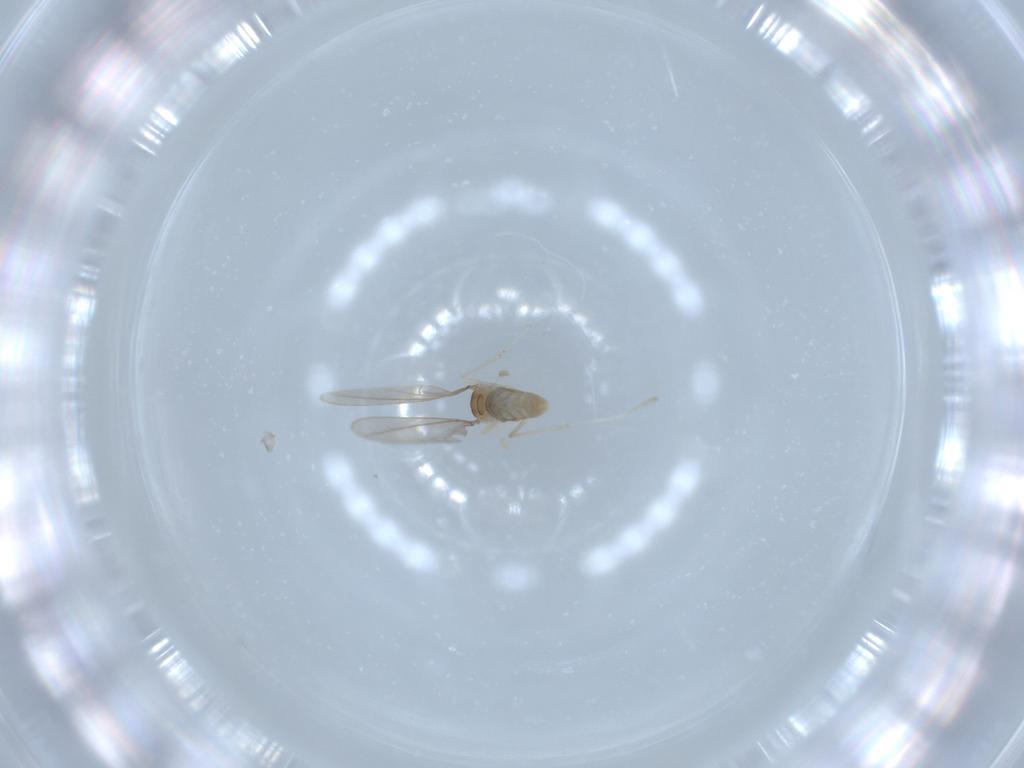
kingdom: Animalia
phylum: Arthropoda
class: Insecta
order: Diptera
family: Cecidomyiidae
